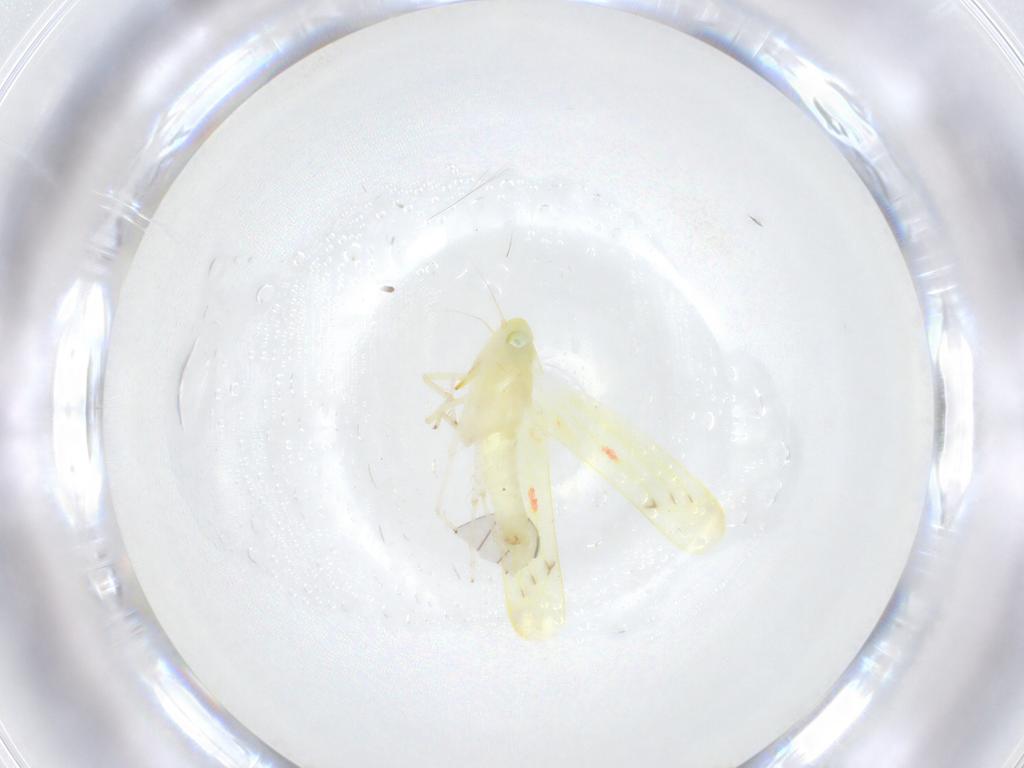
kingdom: Animalia
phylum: Arthropoda
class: Insecta
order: Hemiptera
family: Cicadellidae
